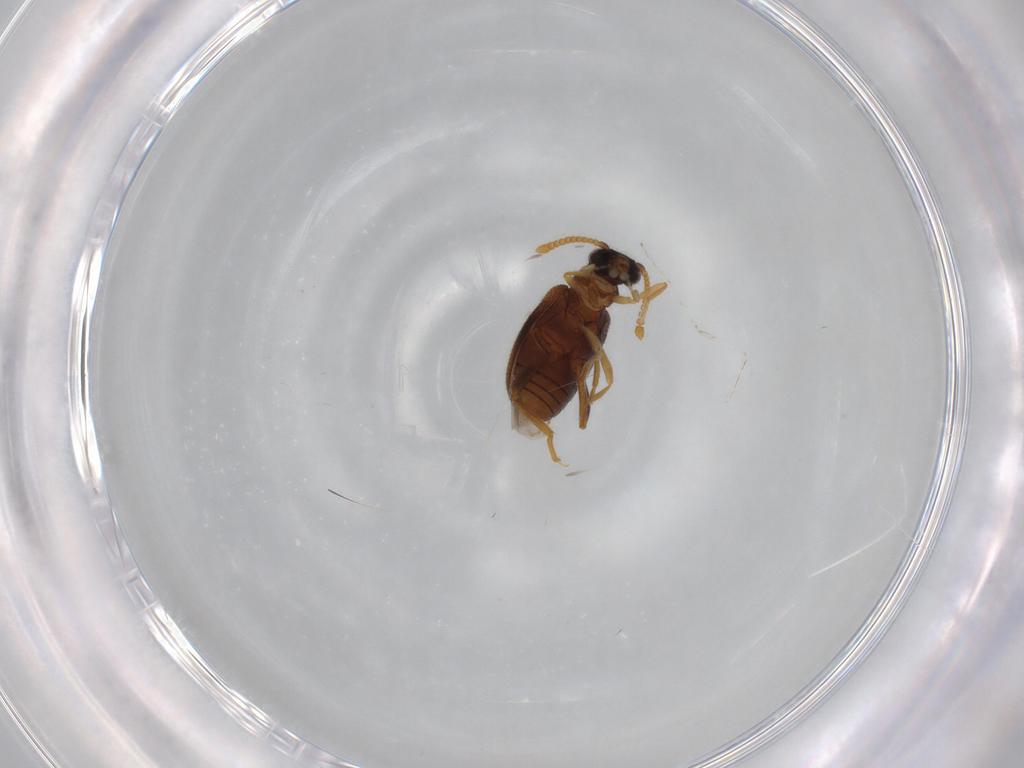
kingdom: Animalia
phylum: Arthropoda
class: Insecta
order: Coleoptera
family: Aderidae
